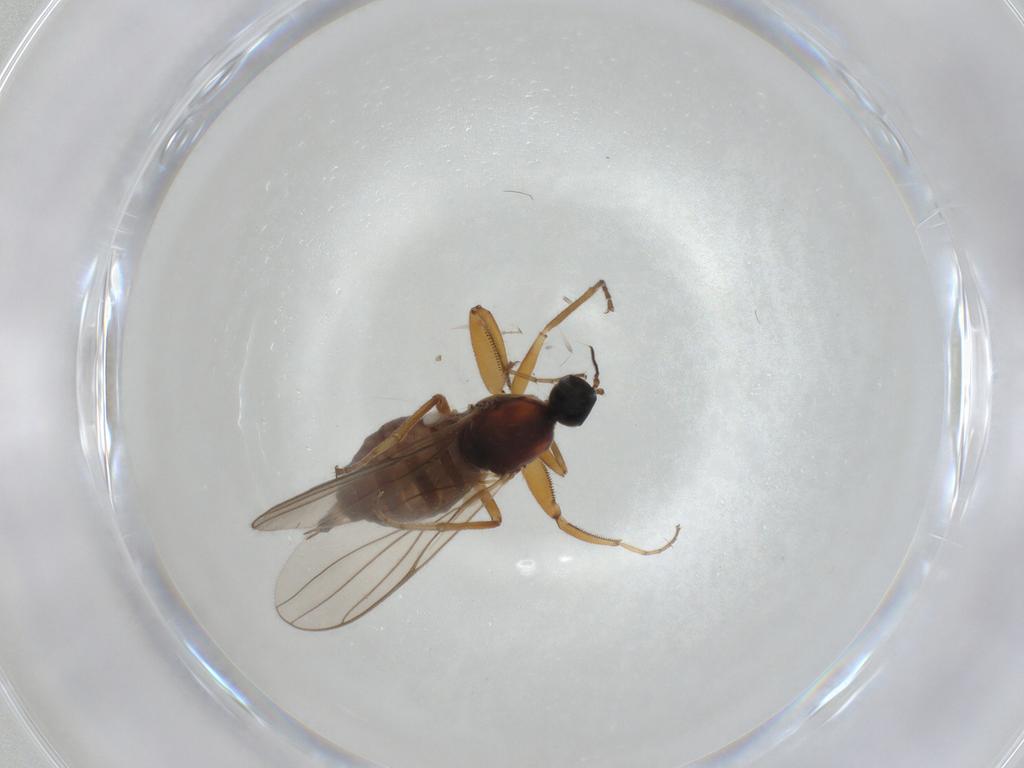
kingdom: Animalia
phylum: Arthropoda
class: Insecta
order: Diptera
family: Hybotidae
